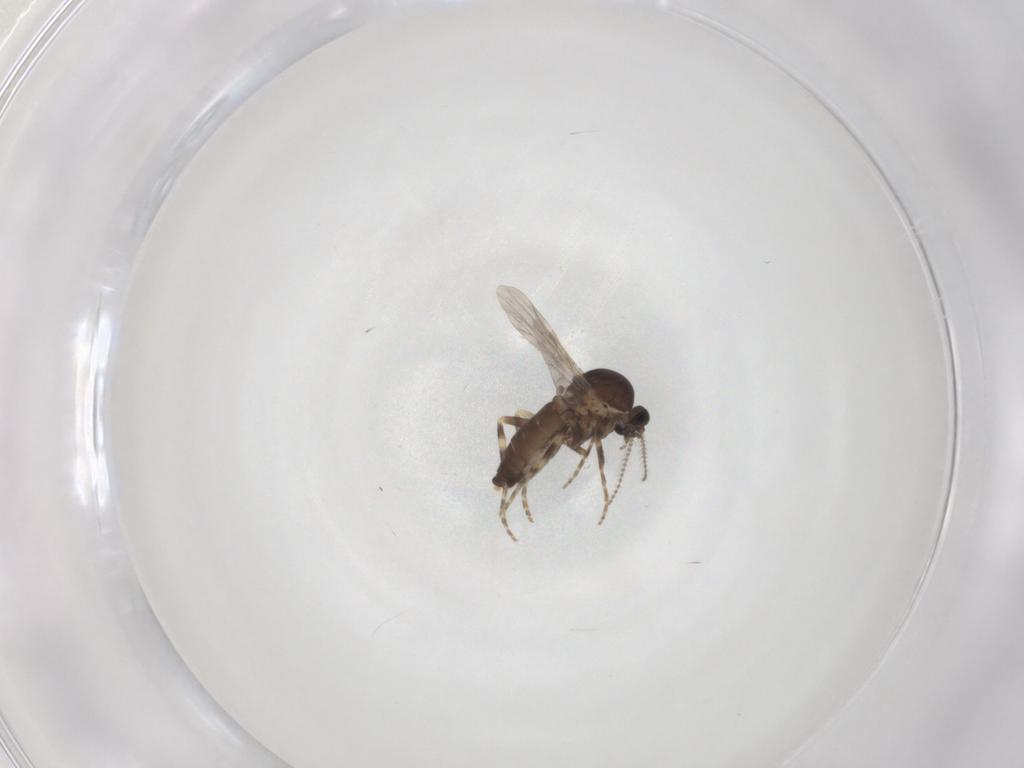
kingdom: Animalia
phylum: Arthropoda
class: Insecta
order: Diptera
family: Ceratopogonidae
